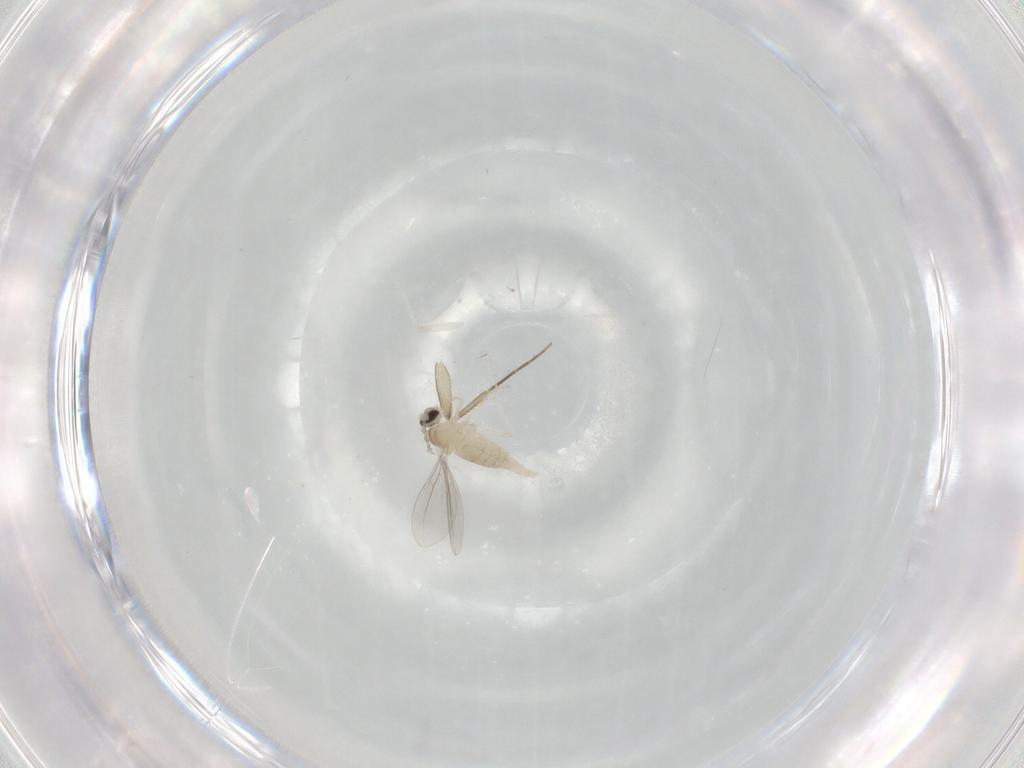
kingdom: Animalia
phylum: Arthropoda
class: Insecta
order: Diptera
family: Cecidomyiidae
